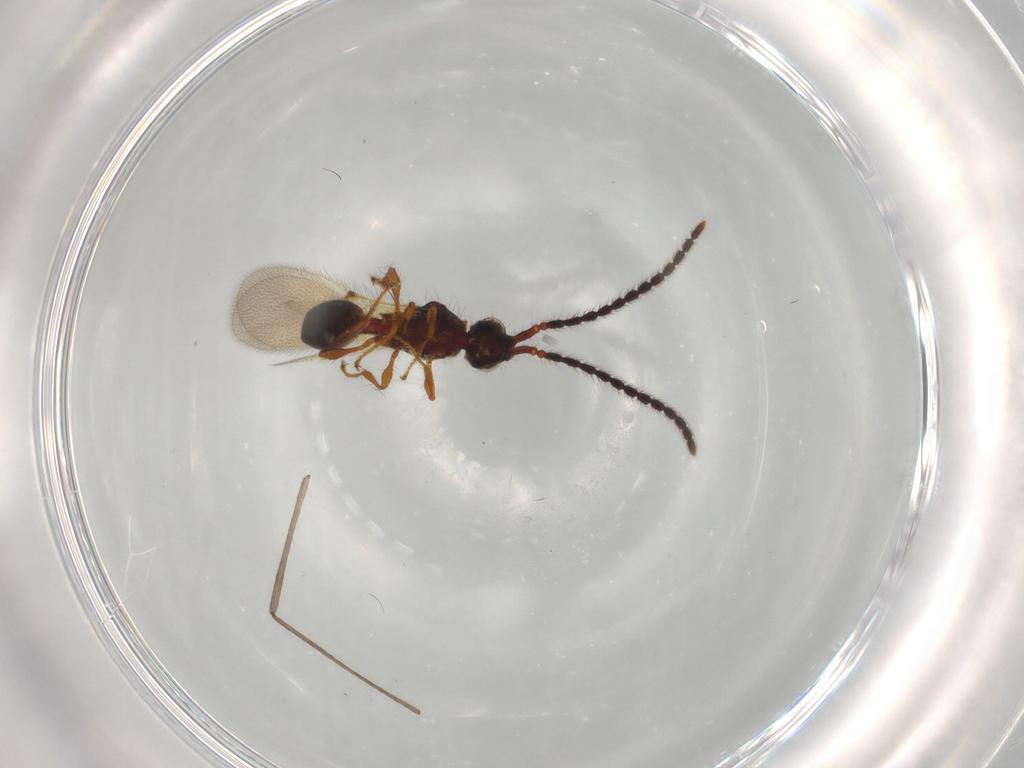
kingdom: Animalia
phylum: Arthropoda
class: Insecta
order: Hymenoptera
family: Diapriidae
